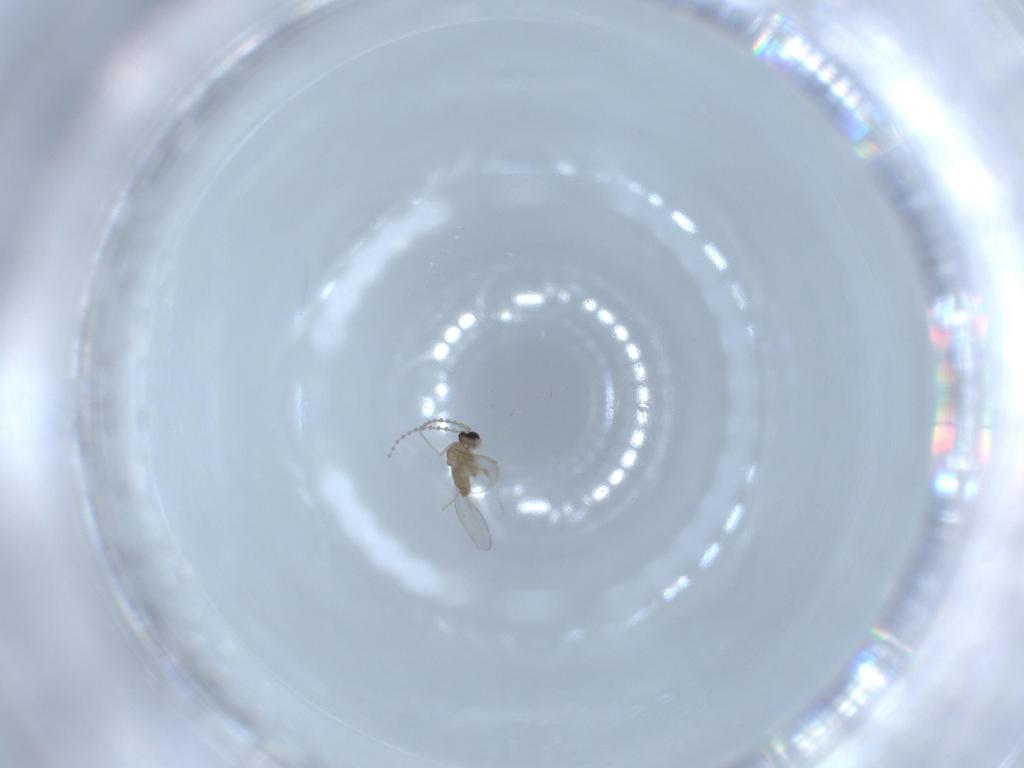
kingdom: Animalia
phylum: Arthropoda
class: Insecta
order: Diptera
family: Cecidomyiidae
